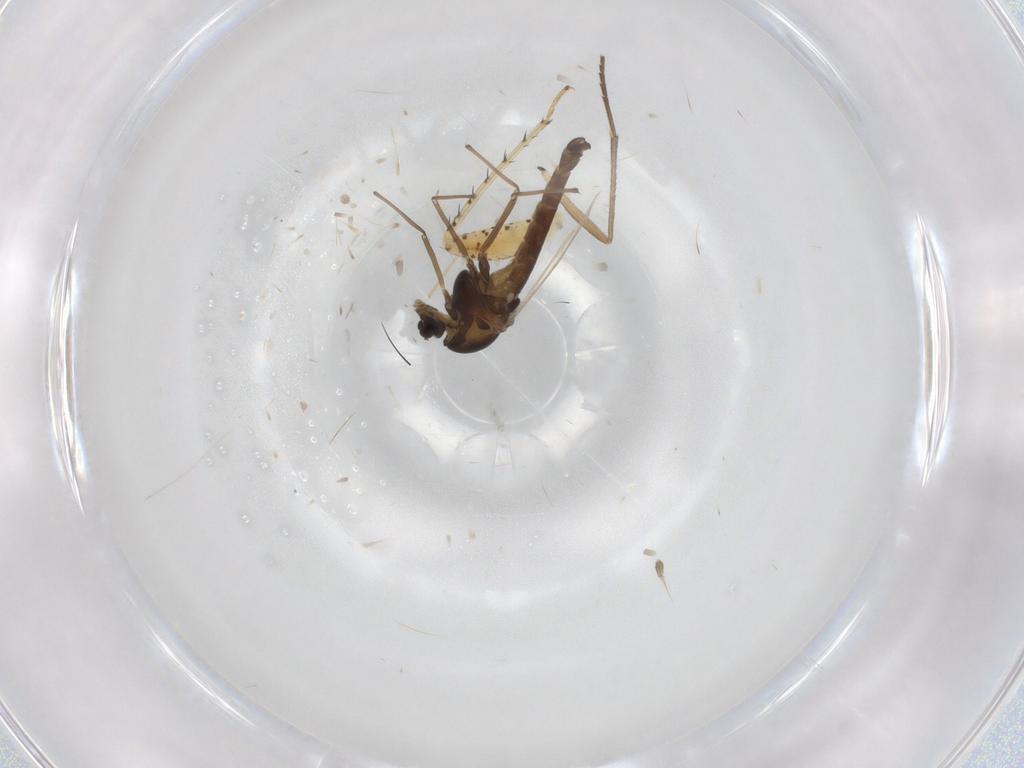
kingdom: Animalia
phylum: Arthropoda
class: Insecta
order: Diptera
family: Chironomidae
